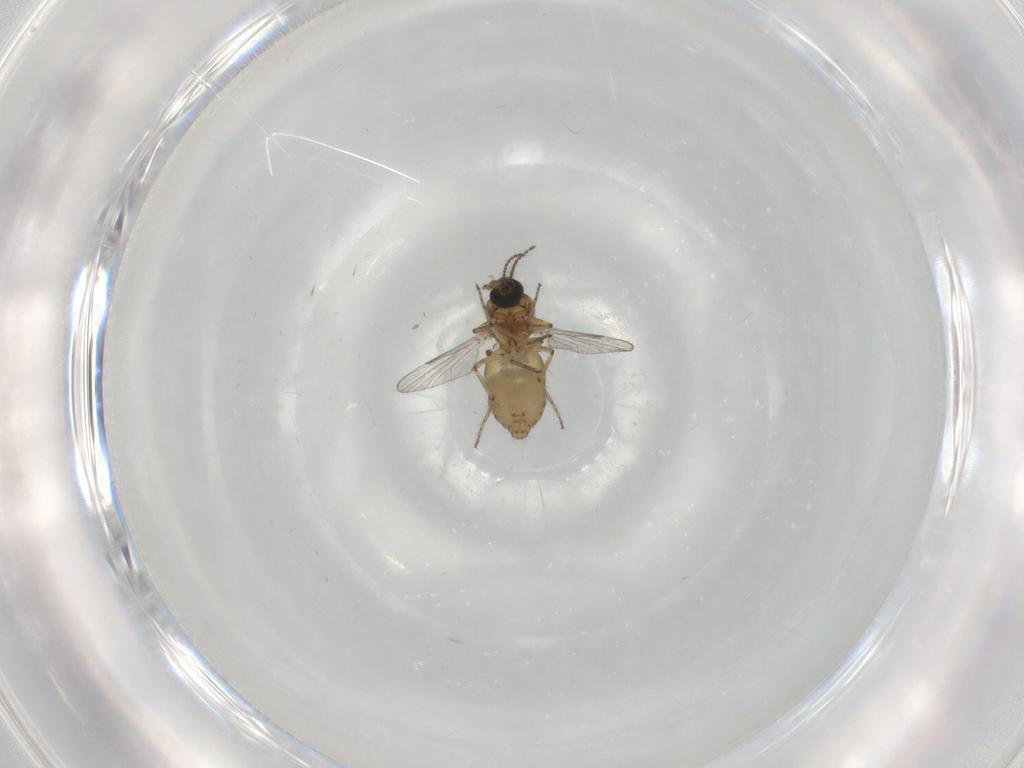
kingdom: Animalia
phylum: Arthropoda
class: Insecta
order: Diptera
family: Ceratopogonidae
